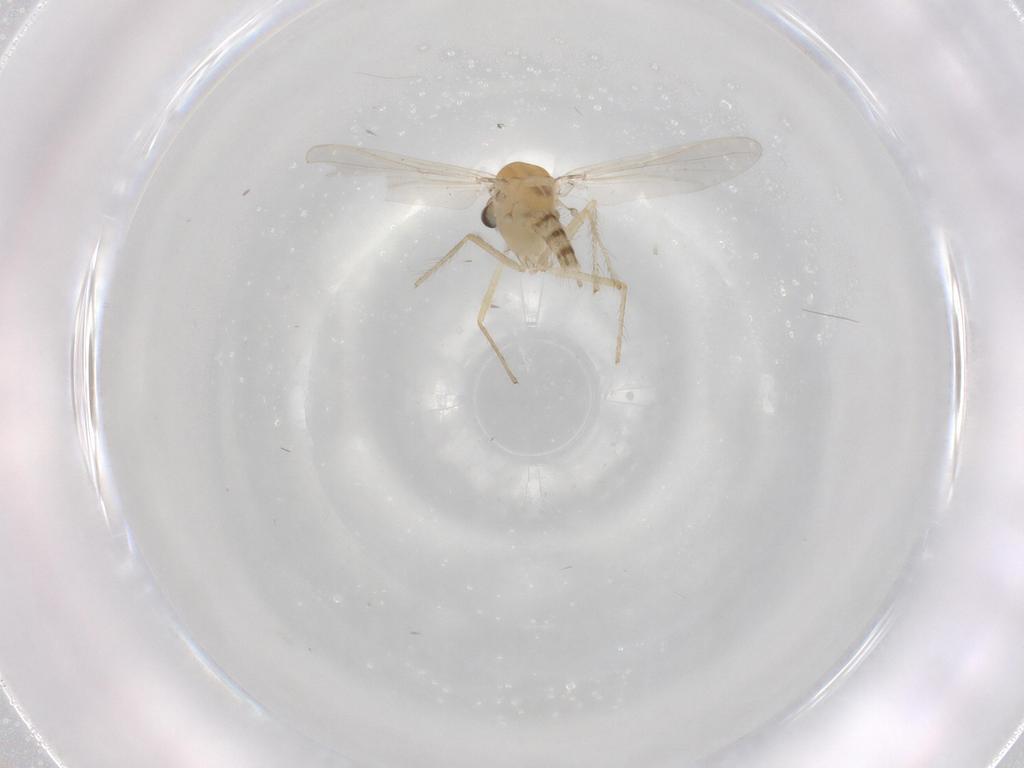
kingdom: Animalia
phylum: Arthropoda
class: Insecta
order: Diptera
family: Chironomidae
